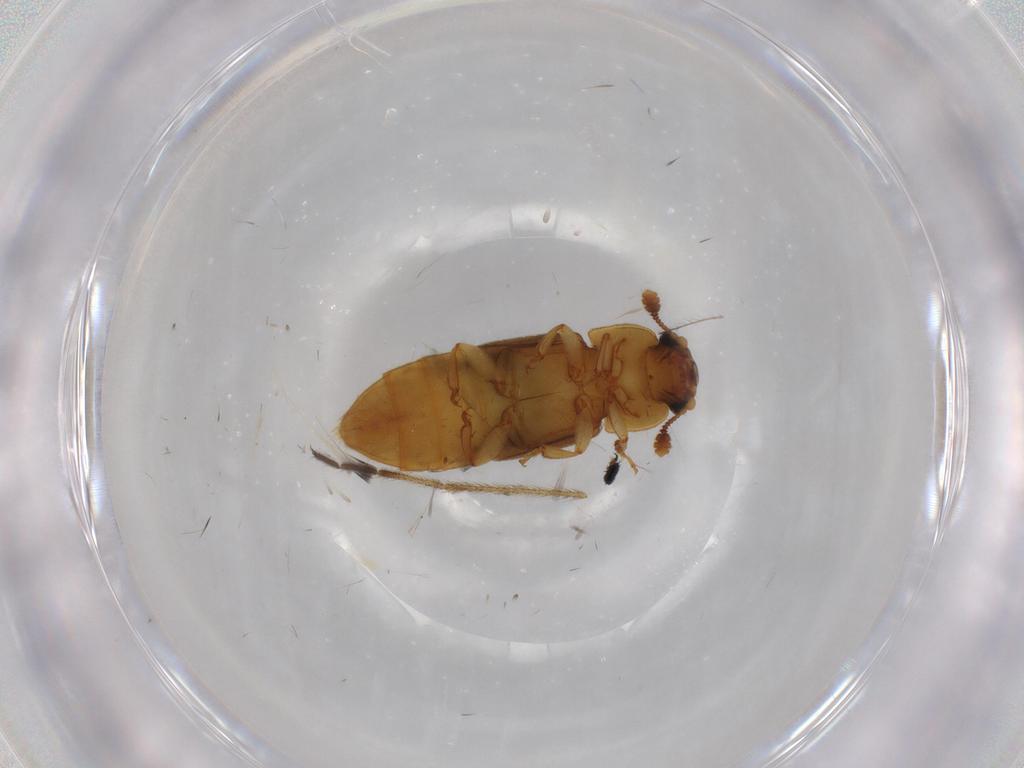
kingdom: Animalia
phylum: Arthropoda
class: Insecta
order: Coleoptera
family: Nitidulidae
